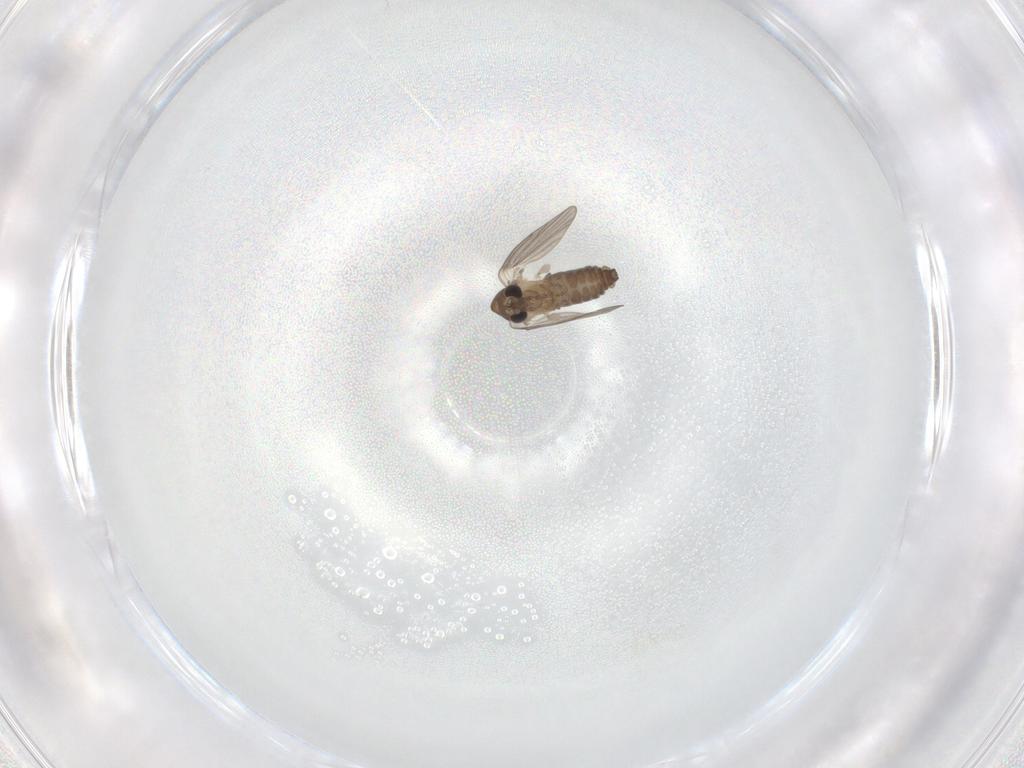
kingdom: Animalia
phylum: Arthropoda
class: Insecta
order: Diptera
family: Psychodidae
